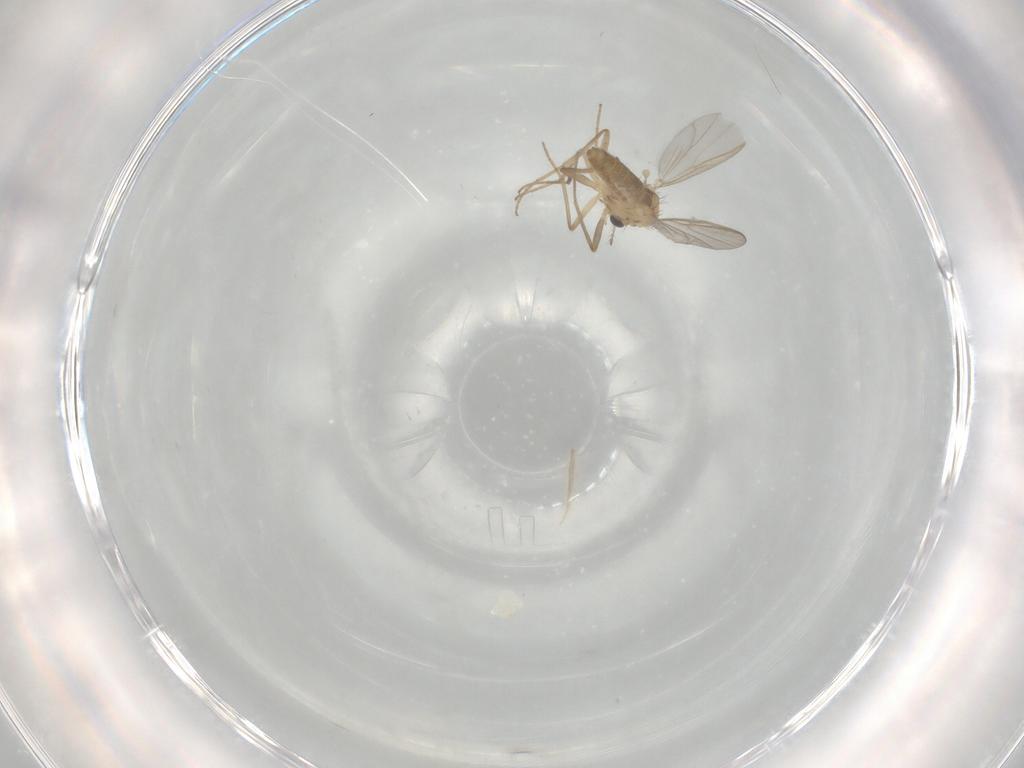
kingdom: Animalia
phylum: Arthropoda
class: Insecta
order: Diptera
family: Chironomidae
